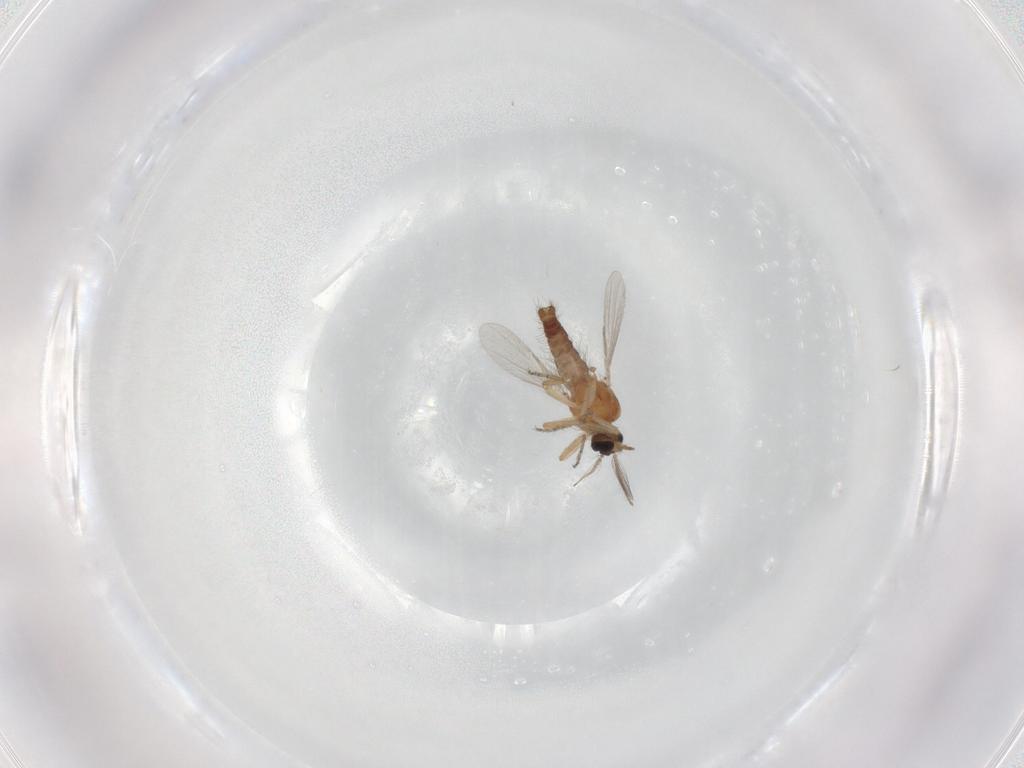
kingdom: Animalia
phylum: Arthropoda
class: Insecta
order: Diptera
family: Ceratopogonidae
